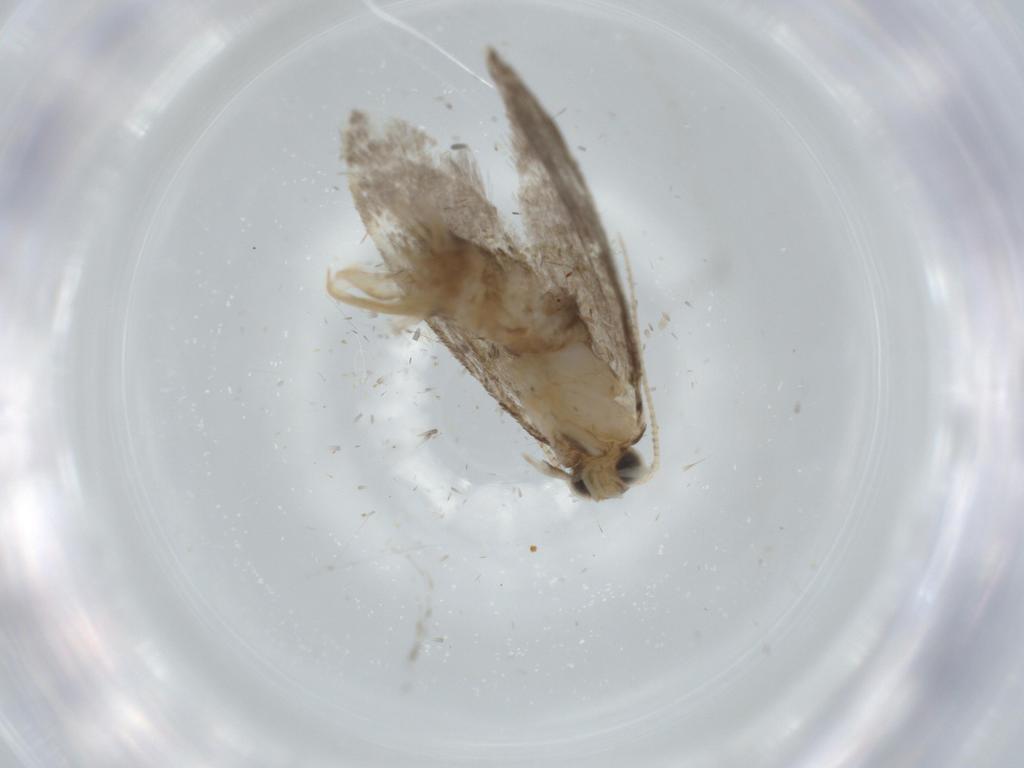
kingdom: Animalia
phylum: Arthropoda
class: Insecta
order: Lepidoptera
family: Tineidae
